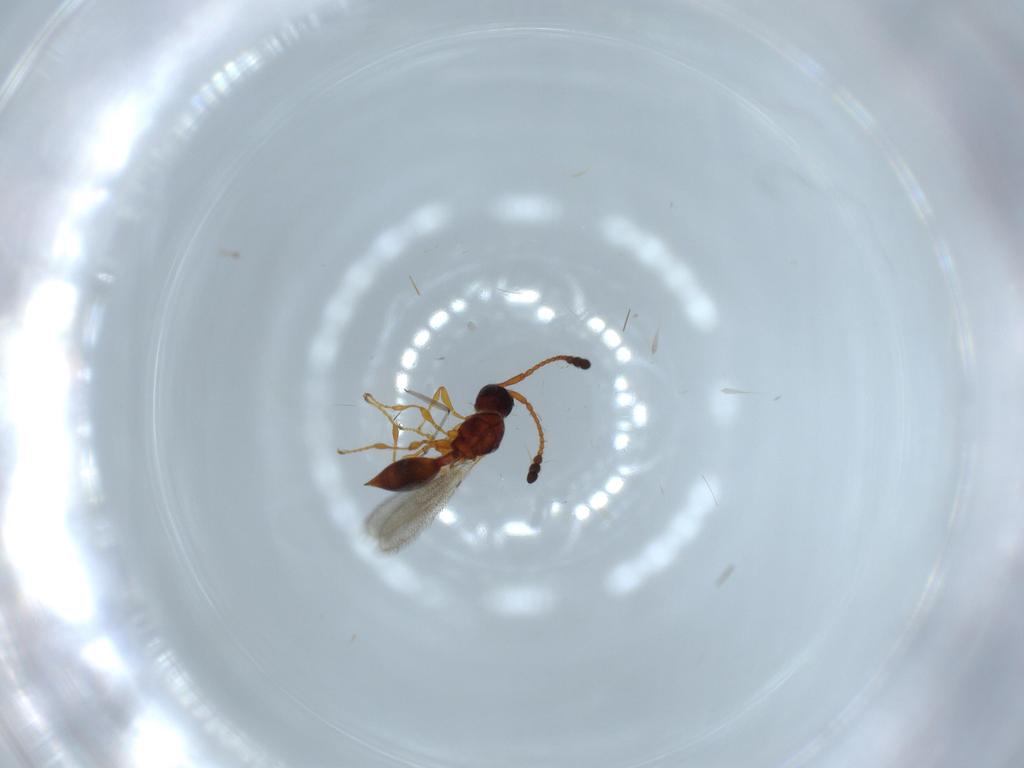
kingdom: Animalia
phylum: Arthropoda
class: Insecta
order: Hymenoptera
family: Diapriidae
